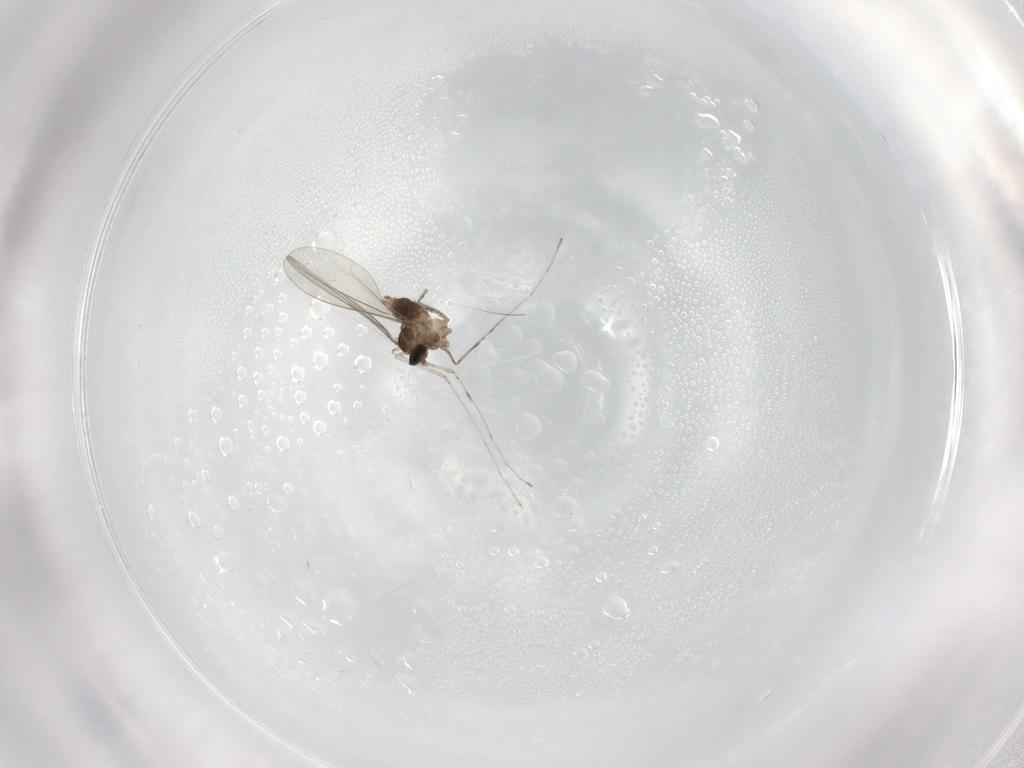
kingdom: Animalia
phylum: Arthropoda
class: Insecta
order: Diptera
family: Cecidomyiidae
